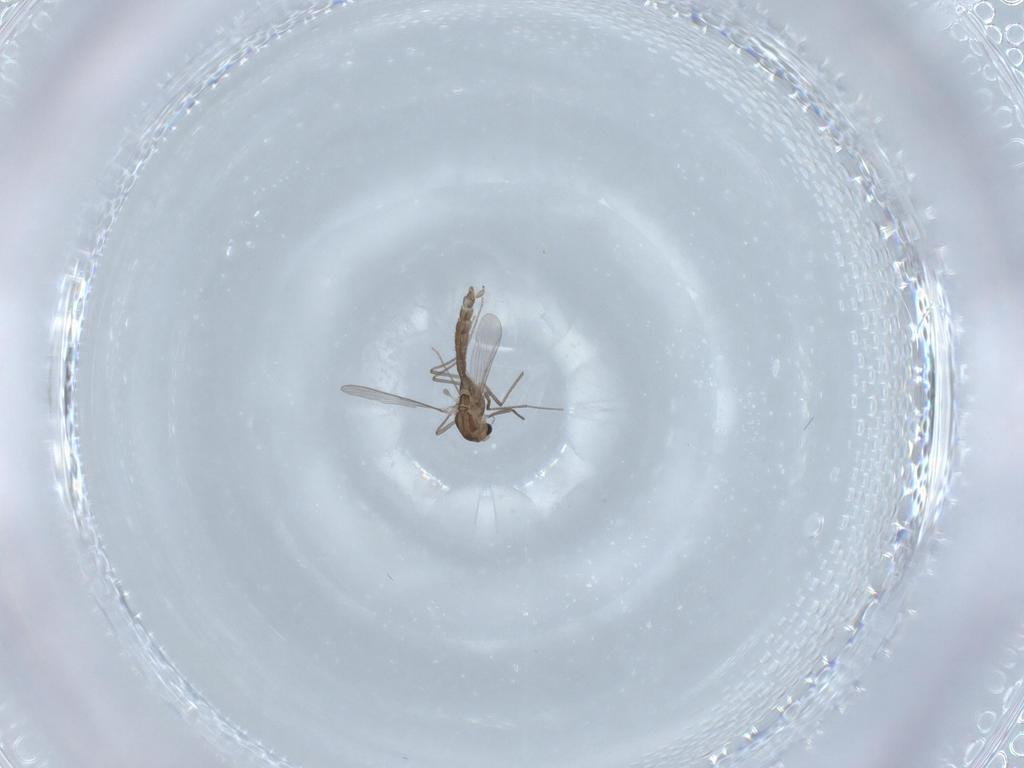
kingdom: Animalia
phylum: Arthropoda
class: Insecta
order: Diptera
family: Chironomidae
